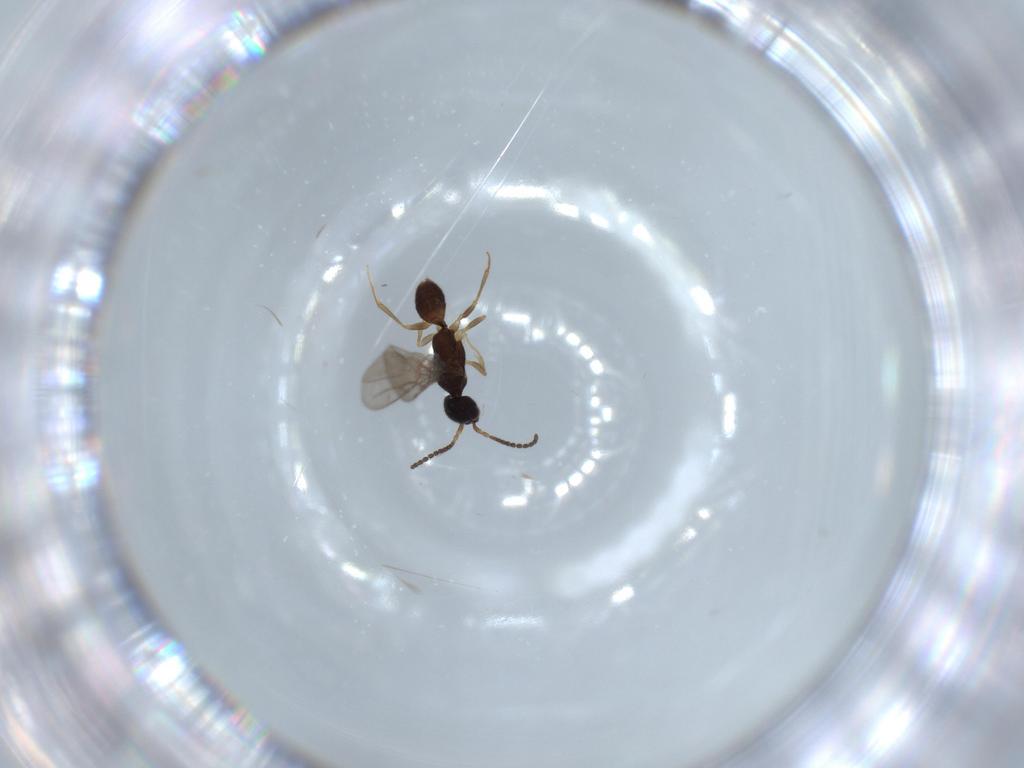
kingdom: Animalia
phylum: Arthropoda
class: Insecta
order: Hymenoptera
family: Bethylidae
